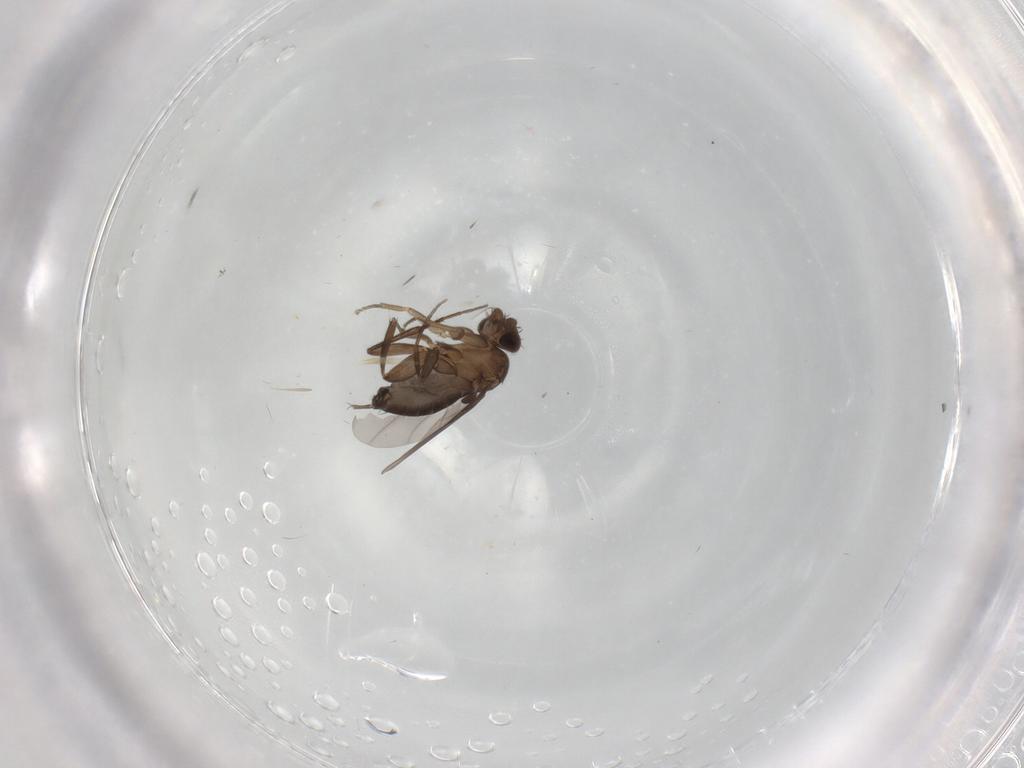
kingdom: Animalia
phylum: Arthropoda
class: Insecta
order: Diptera
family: Phoridae
